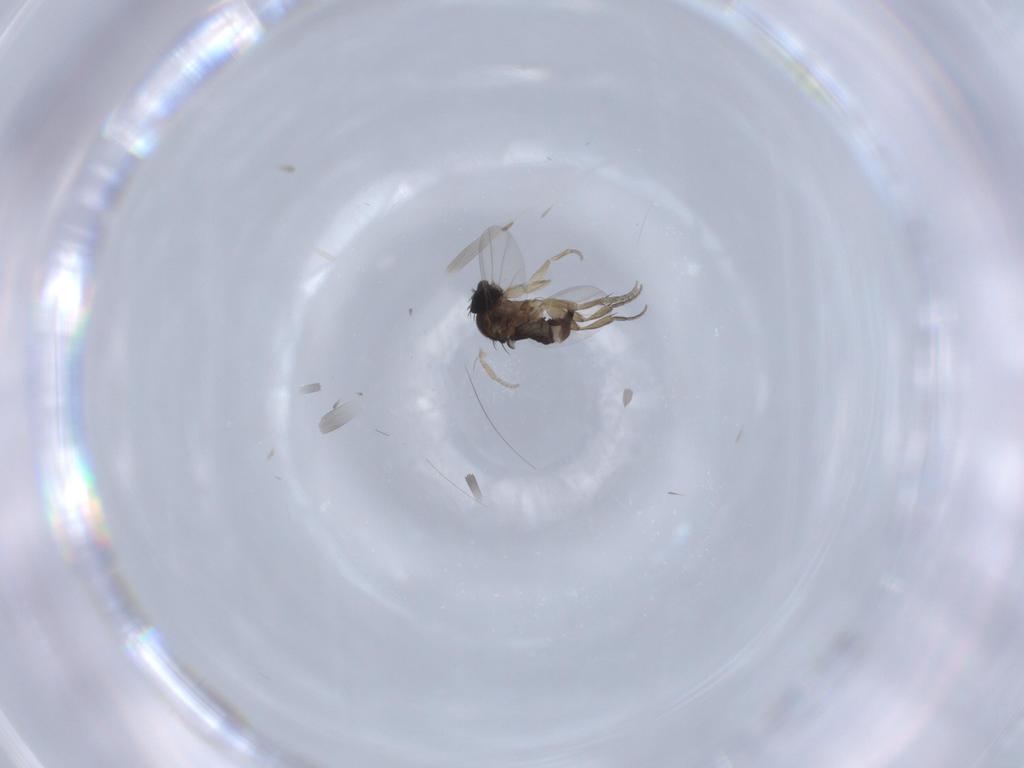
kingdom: Animalia
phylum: Arthropoda
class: Insecta
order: Diptera
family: Phoridae
